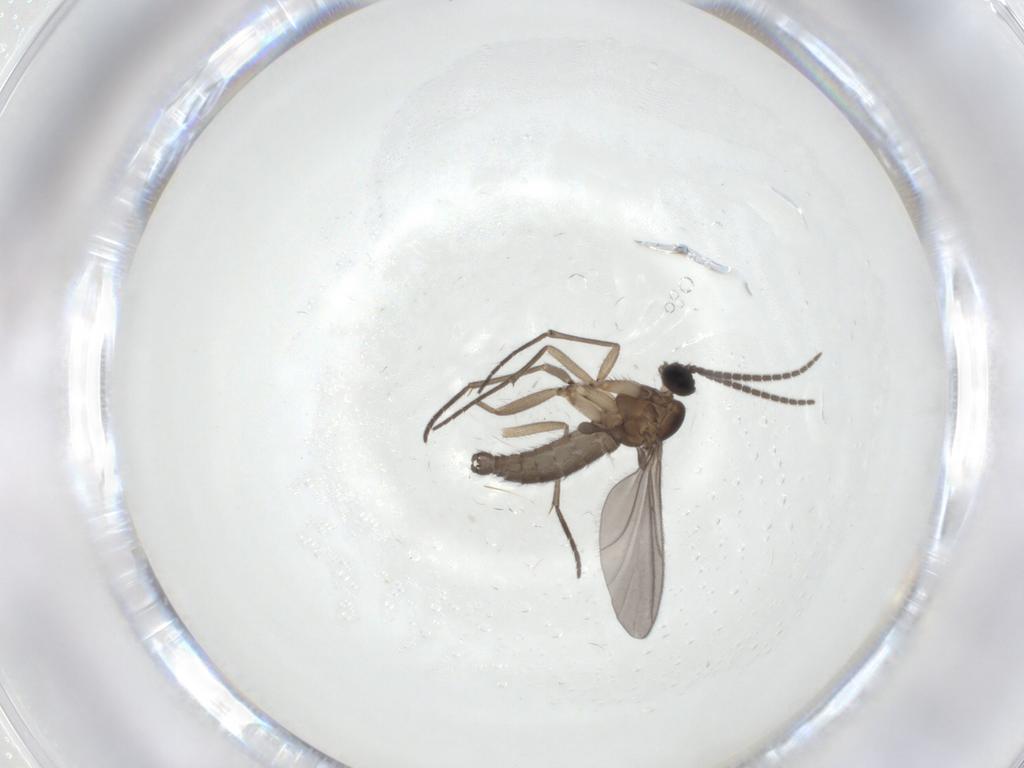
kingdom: Animalia
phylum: Arthropoda
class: Insecta
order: Diptera
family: Sciaridae
